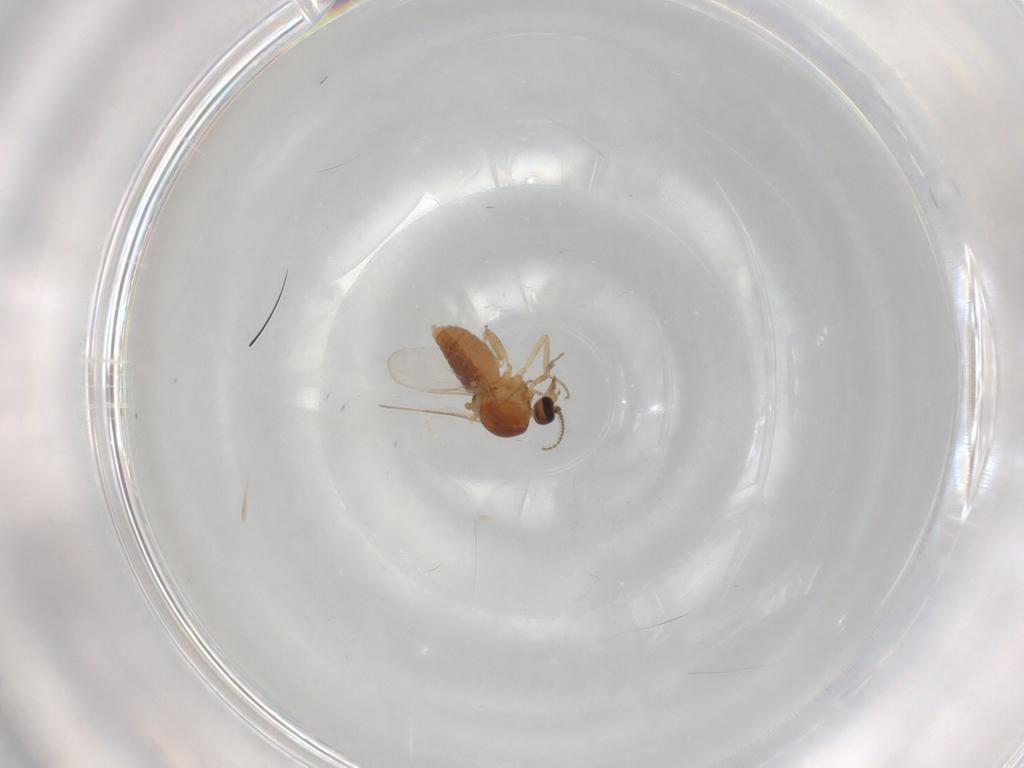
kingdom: Animalia
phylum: Arthropoda
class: Insecta
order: Diptera
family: Ceratopogonidae
